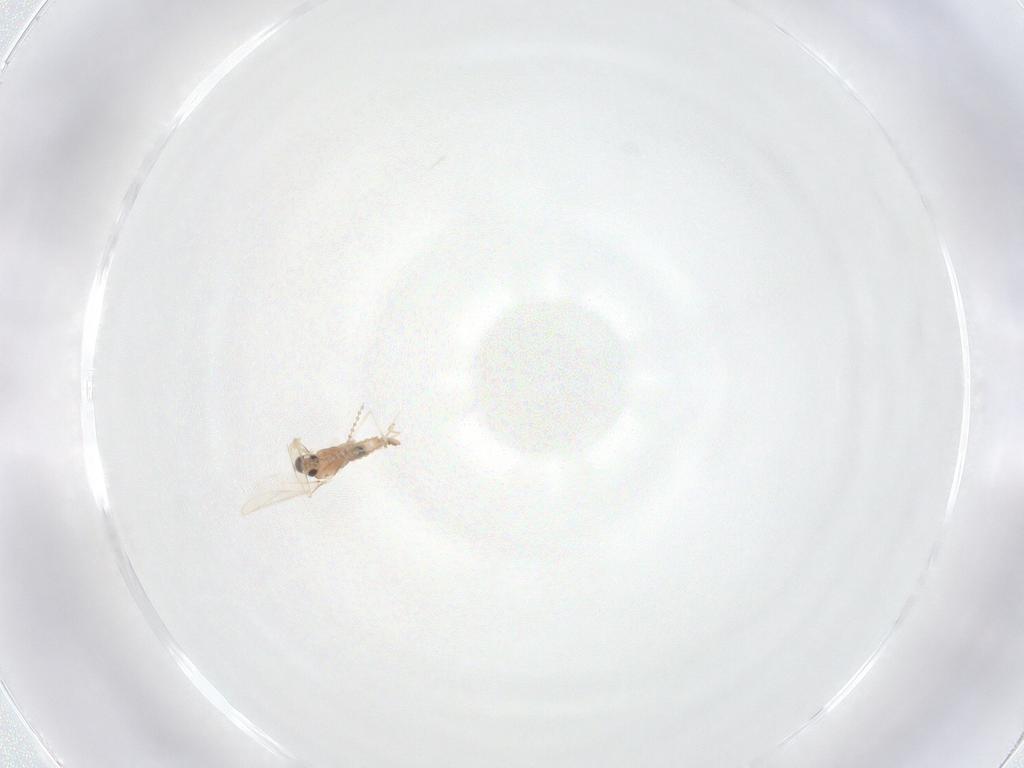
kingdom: Animalia
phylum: Arthropoda
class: Insecta
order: Diptera
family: Cecidomyiidae
